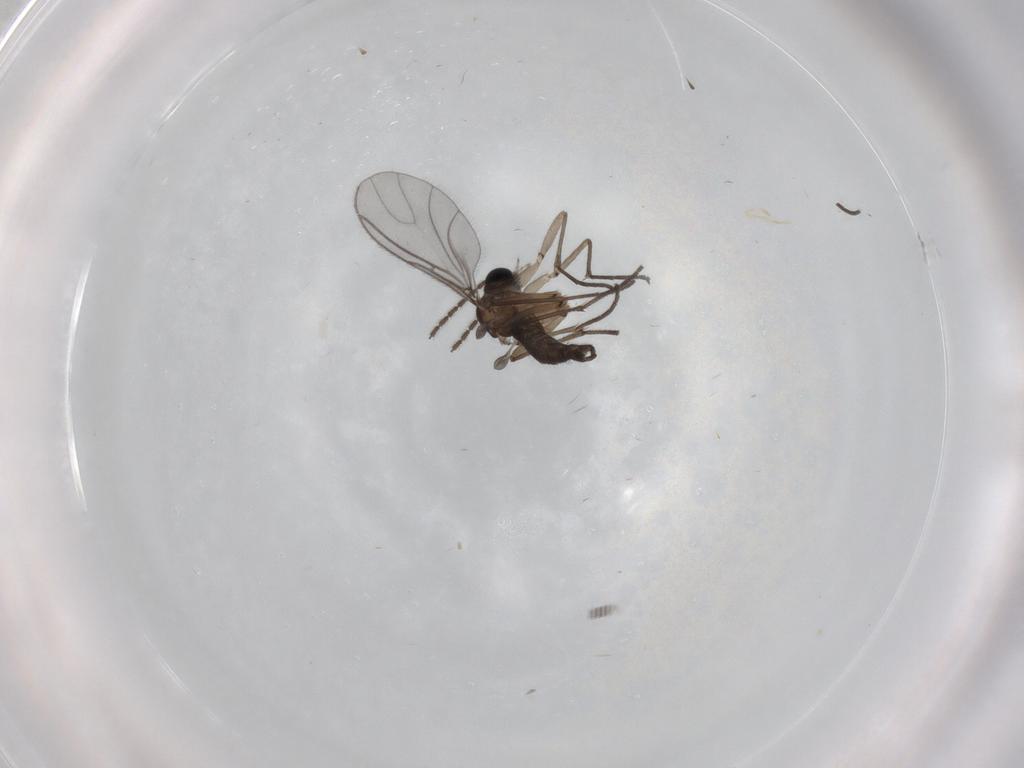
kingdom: Animalia
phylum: Arthropoda
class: Insecta
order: Diptera
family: Sciaridae
